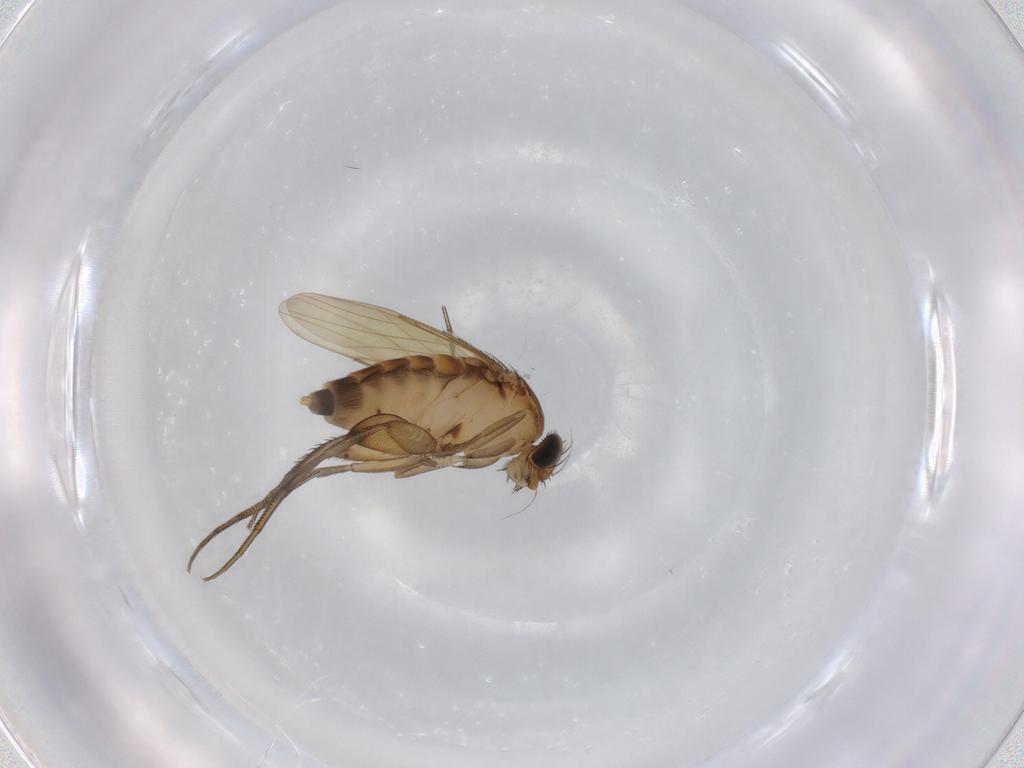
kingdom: Animalia
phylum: Arthropoda
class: Insecta
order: Diptera
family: Phoridae
